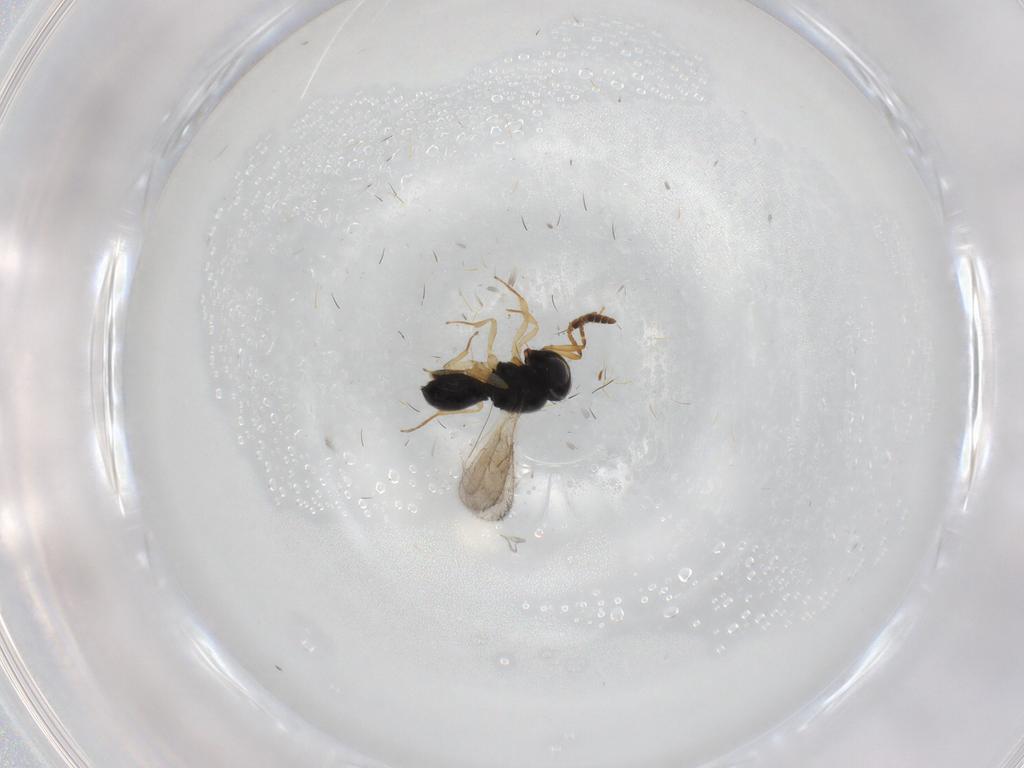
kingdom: Animalia
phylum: Arthropoda
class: Insecta
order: Hymenoptera
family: Scelionidae
